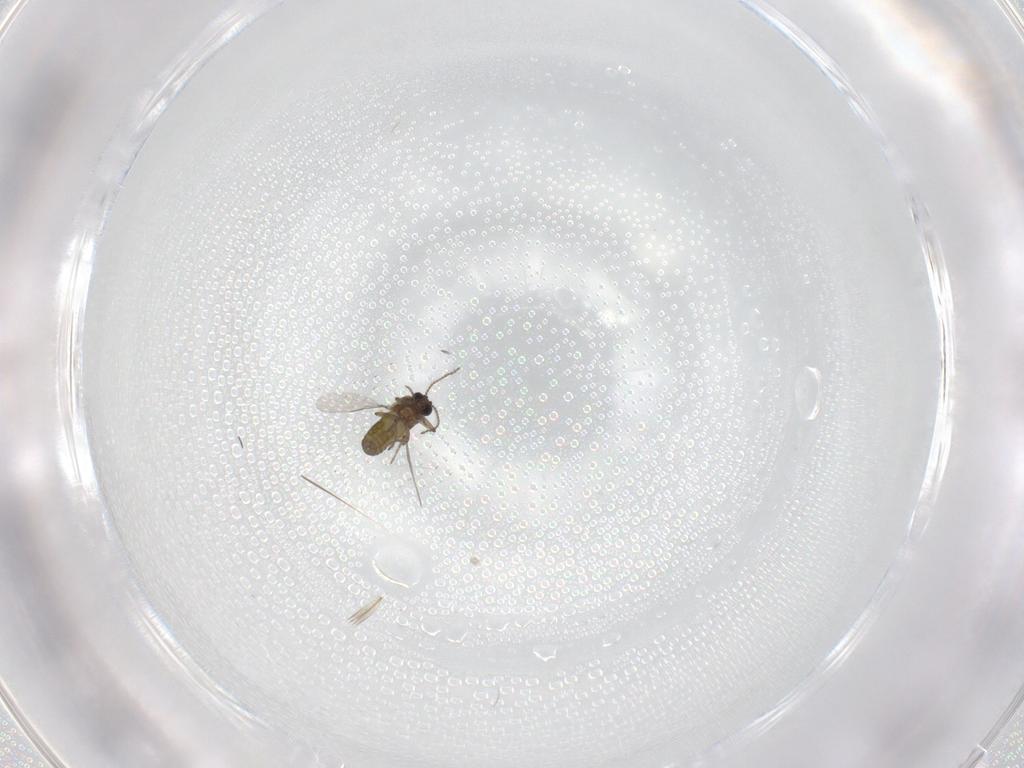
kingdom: Animalia
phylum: Arthropoda
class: Insecta
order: Diptera
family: Ceratopogonidae
